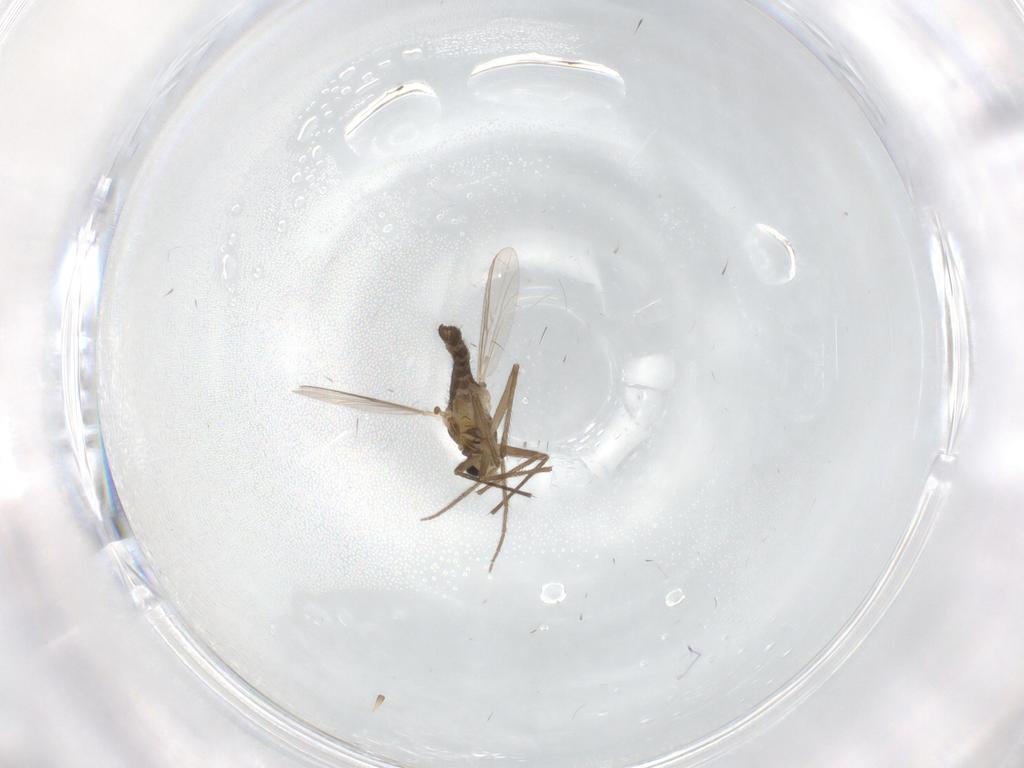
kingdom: Animalia
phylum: Arthropoda
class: Insecta
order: Diptera
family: Chironomidae
